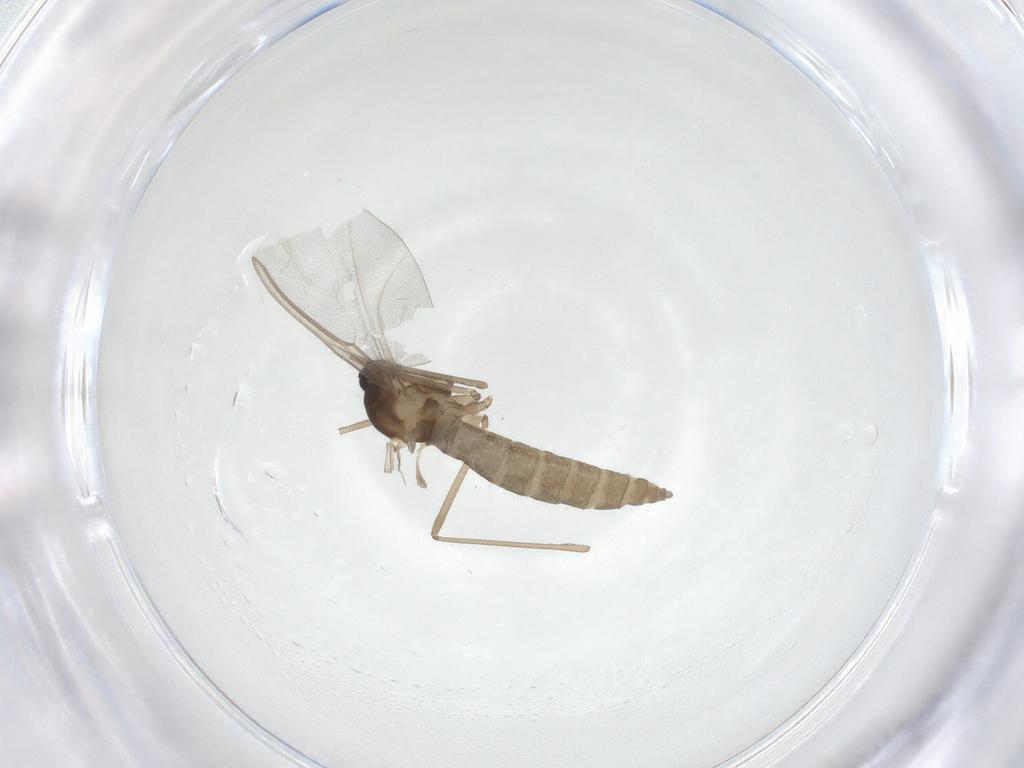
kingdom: Animalia
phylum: Arthropoda
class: Insecta
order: Diptera
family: Cecidomyiidae
